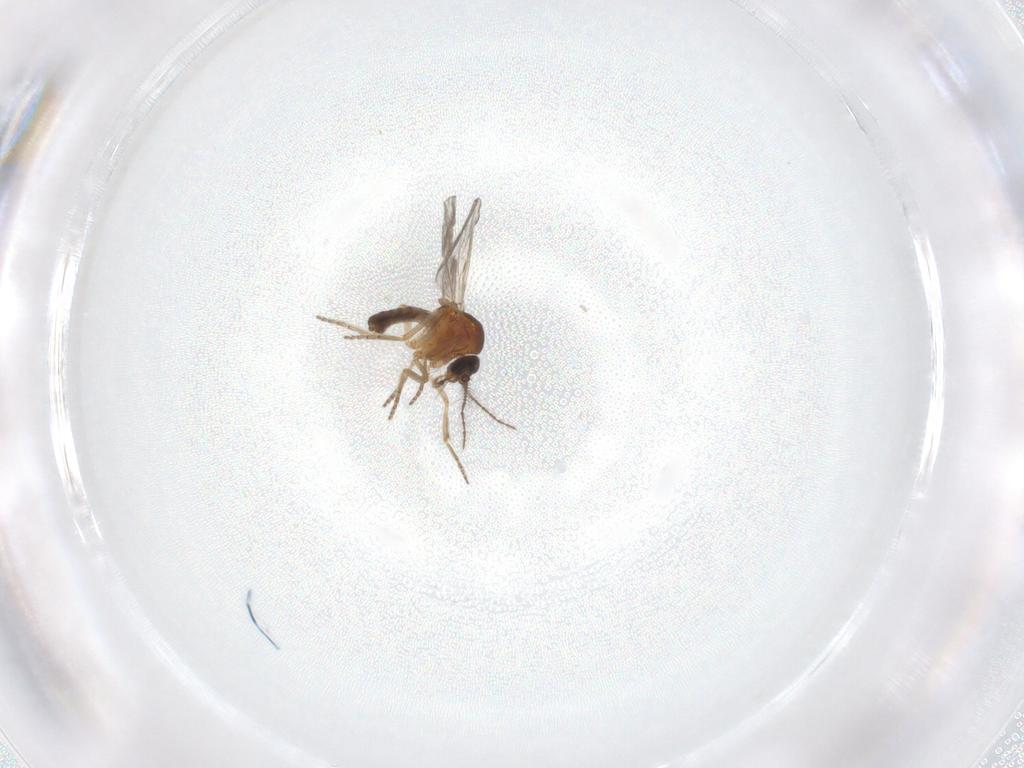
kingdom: Animalia
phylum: Arthropoda
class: Insecta
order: Diptera
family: Ceratopogonidae
